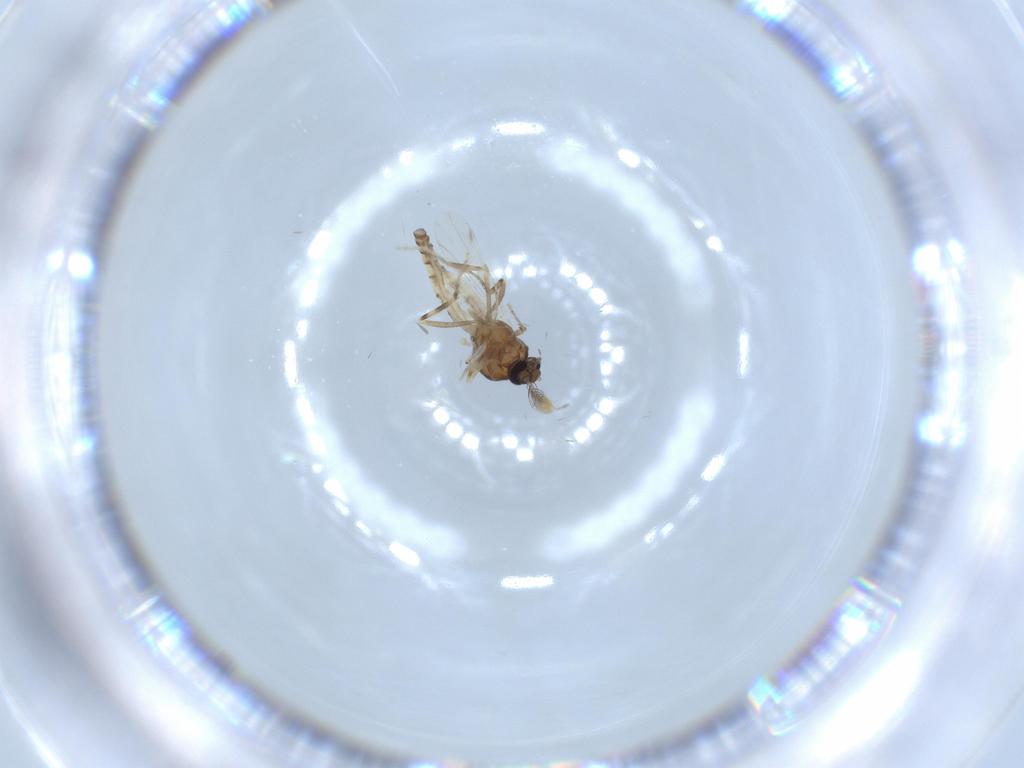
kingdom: Animalia
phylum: Arthropoda
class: Insecta
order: Diptera
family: Ceratopogonidae
